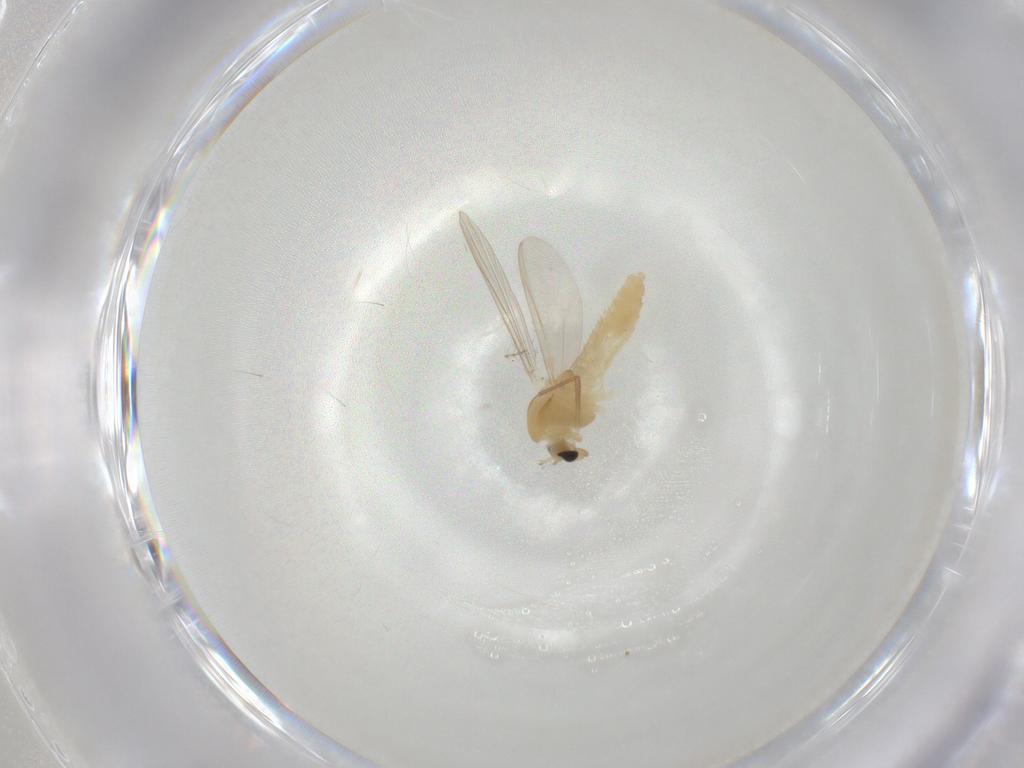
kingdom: Animalia
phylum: Arthropoda
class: Insecta
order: Diptera
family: Chironomidae
